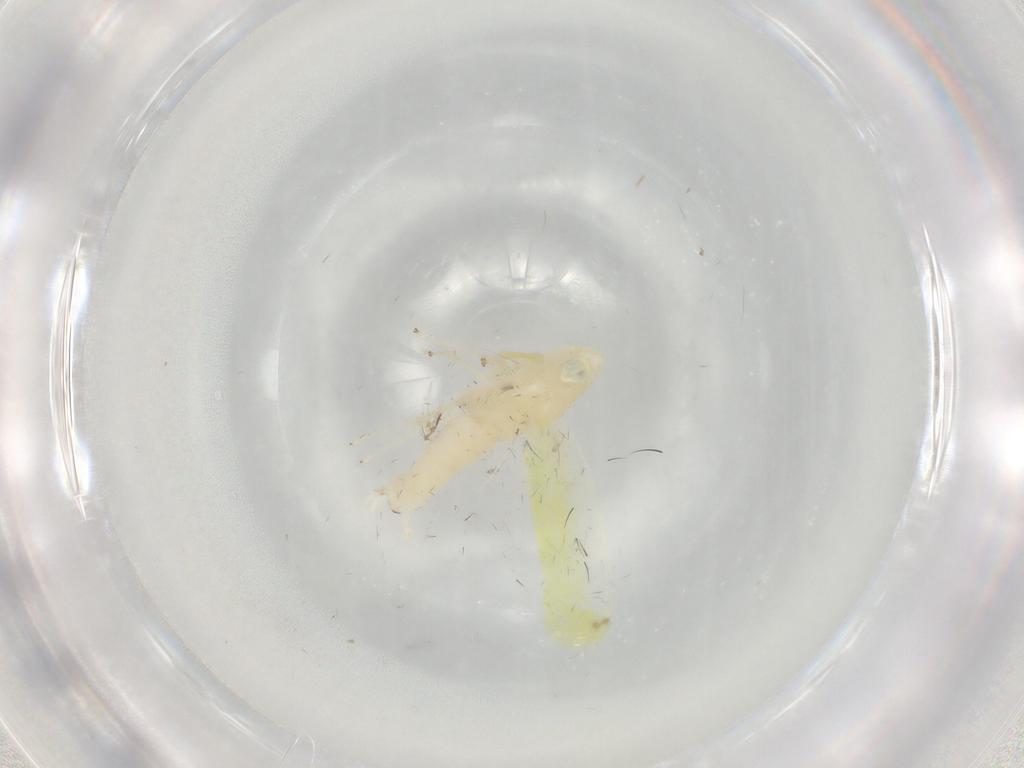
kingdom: Animalia
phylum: Arthropoda
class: Insecta
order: Hemiptera
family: Cicadellidae
